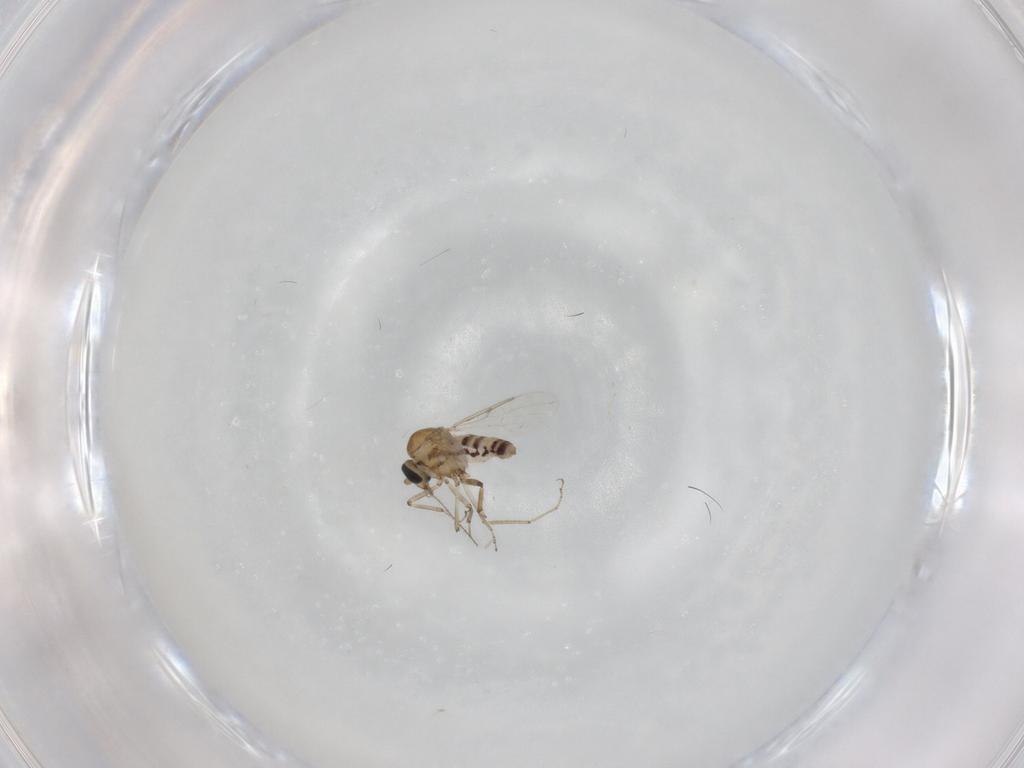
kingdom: Animalia
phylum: Arthropoda
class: Insecta
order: Diptera
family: Ceratopogonidae
